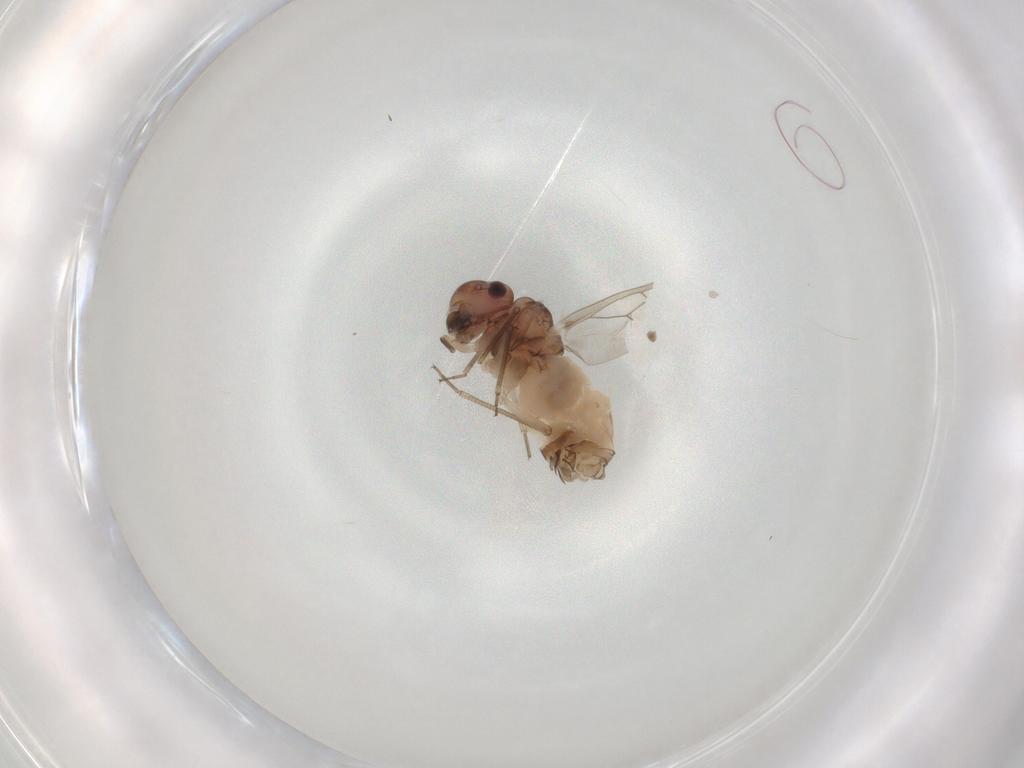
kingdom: Animalia
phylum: Arthropoda
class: Insecta
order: Psocodea
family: Peripsocidae
